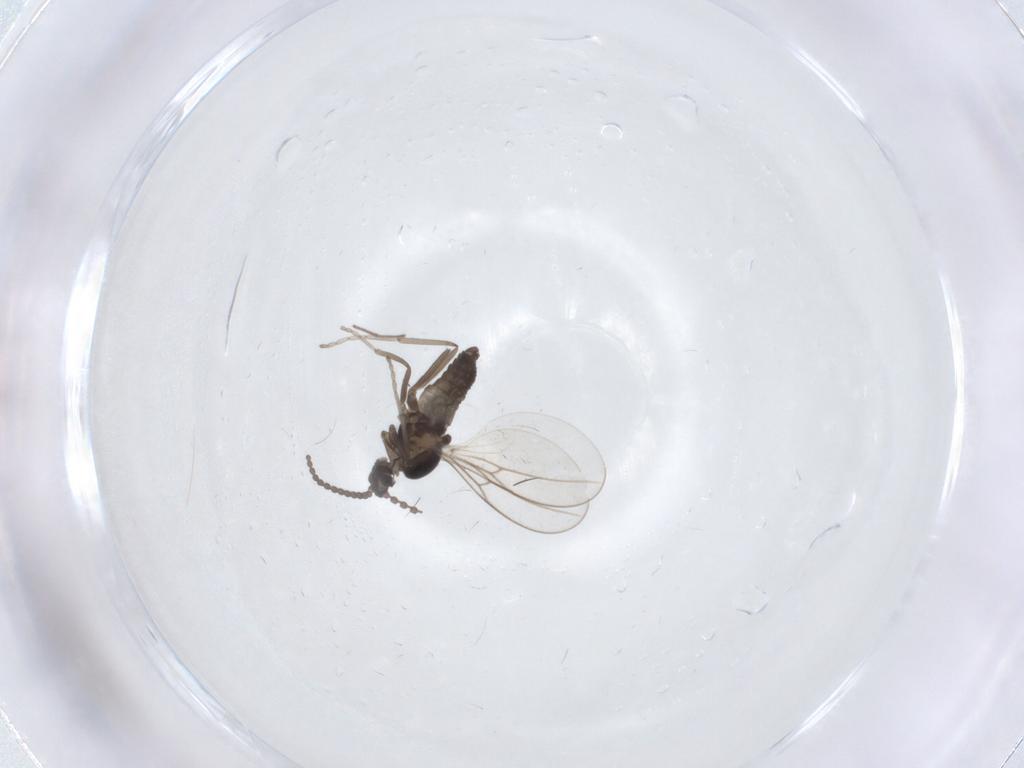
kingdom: Animalia
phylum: Arthropoda
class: Insecta
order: Diptera
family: Cecidomyiidae
